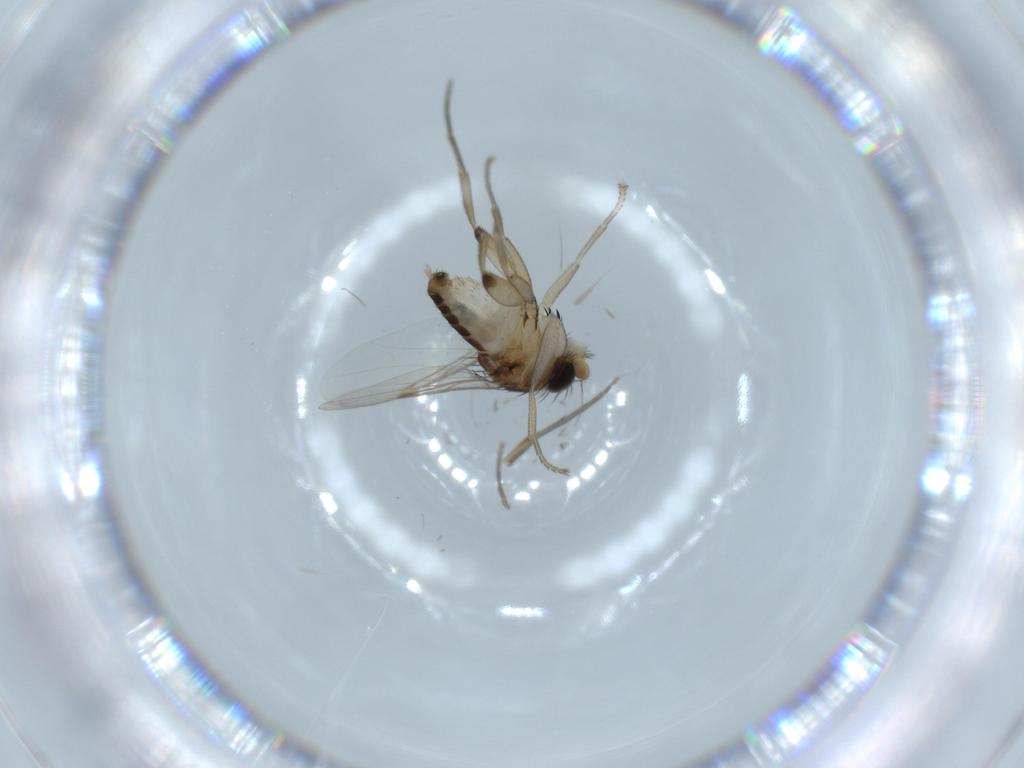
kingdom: Animalia
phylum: Arthropoda
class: Insecta
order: Diptera
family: Phoridae
